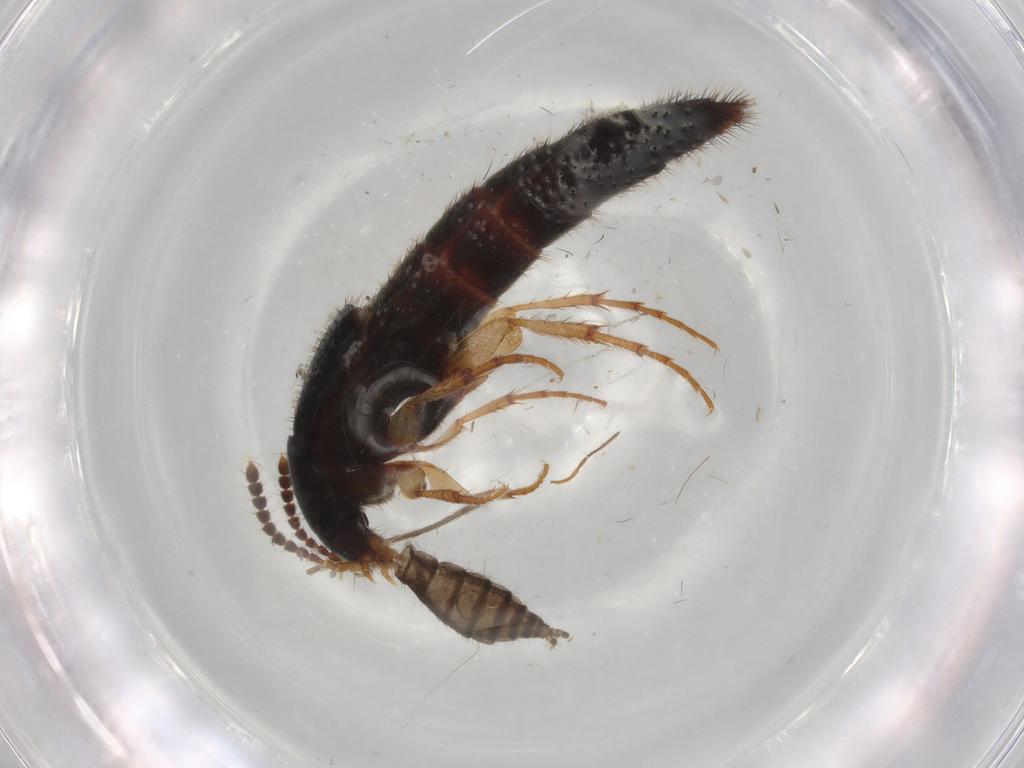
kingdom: Animalia
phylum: Arthropoda
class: Insecta
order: Coleoptera
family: Staphylinidae
